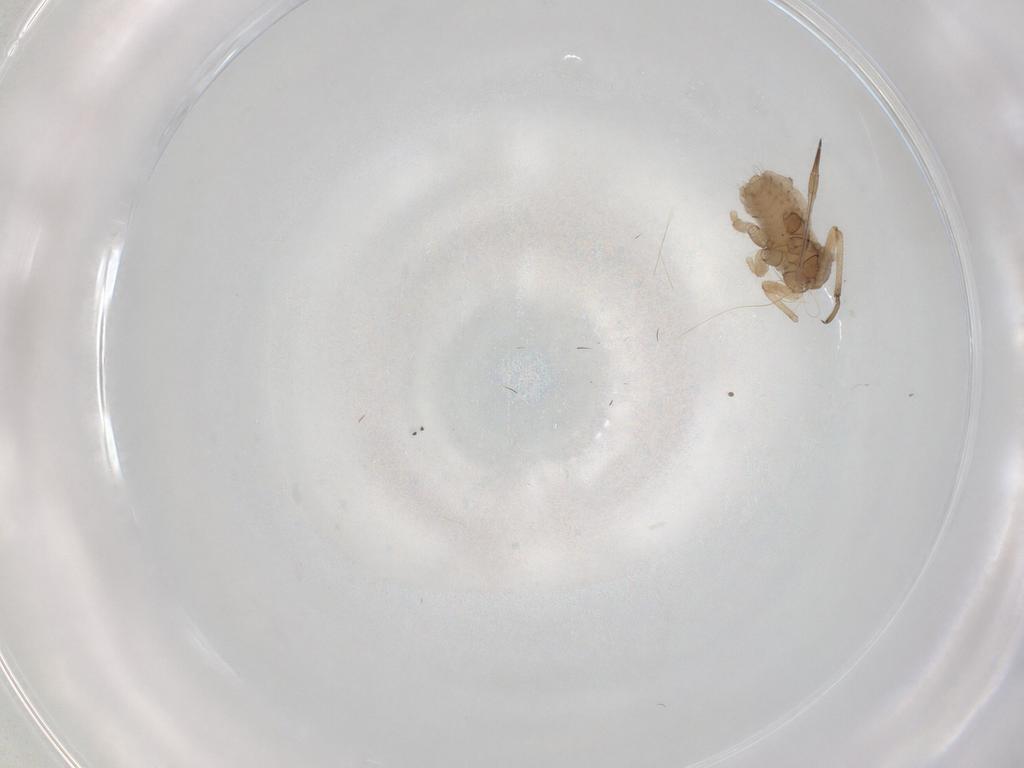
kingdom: Animalia
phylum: Arthropoda
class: Insecta
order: Hemiptera
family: Aphididae
